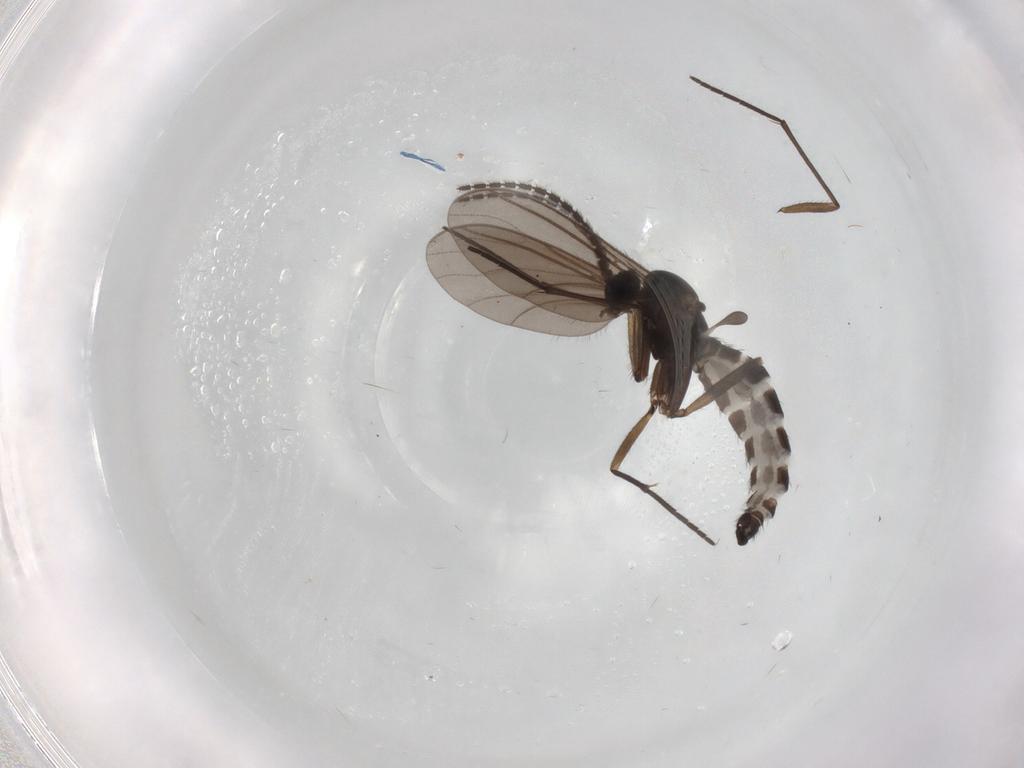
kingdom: Animalia
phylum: Arthropoda
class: Insecta
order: Diptera
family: Sciaridae
